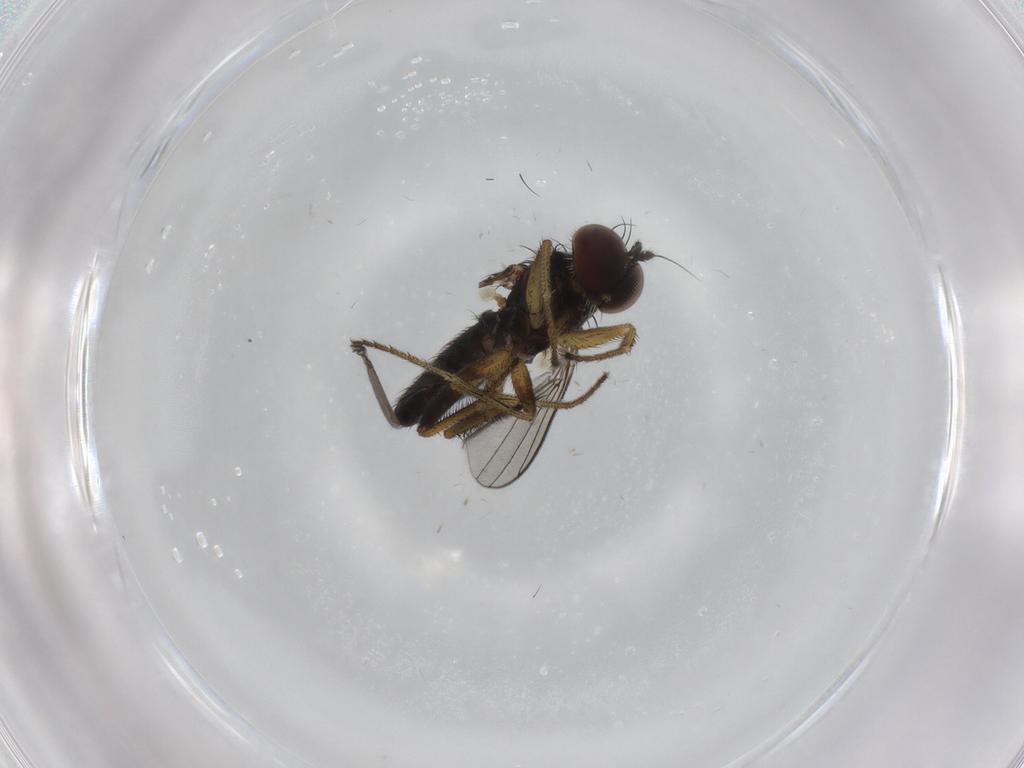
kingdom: Animalia
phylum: Arthropoda
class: Insecta
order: Diptera
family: Dolichopodidae
